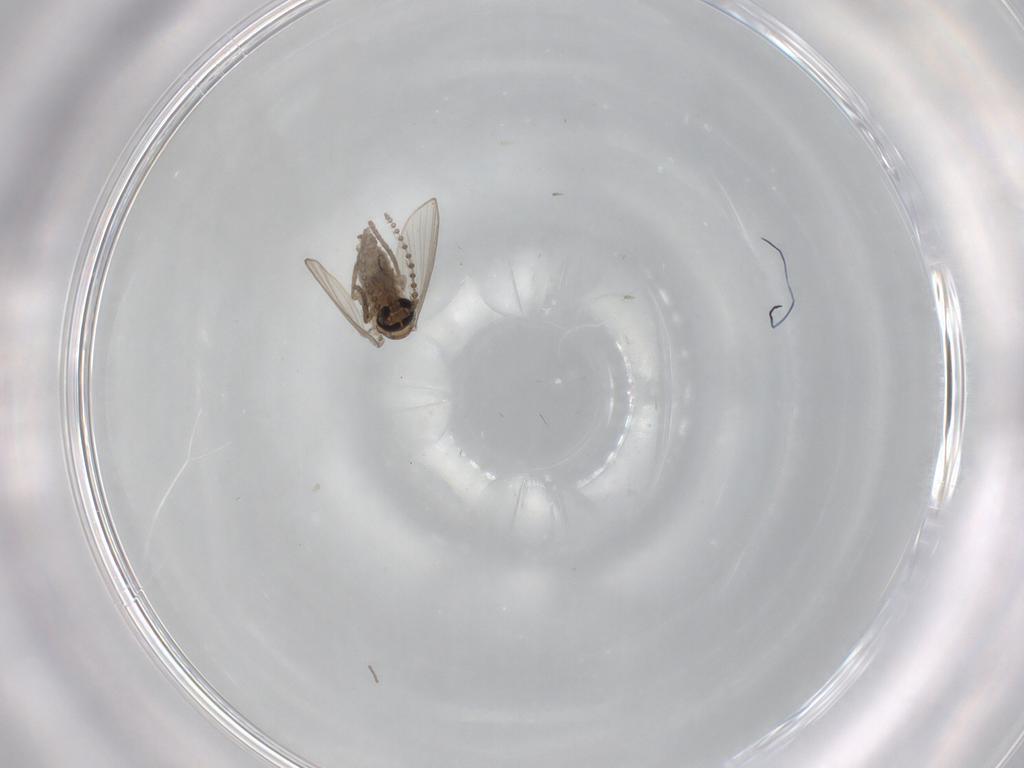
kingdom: Animalia
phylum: Arthropoda
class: Insecta
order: Diptera
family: Psychodidae
